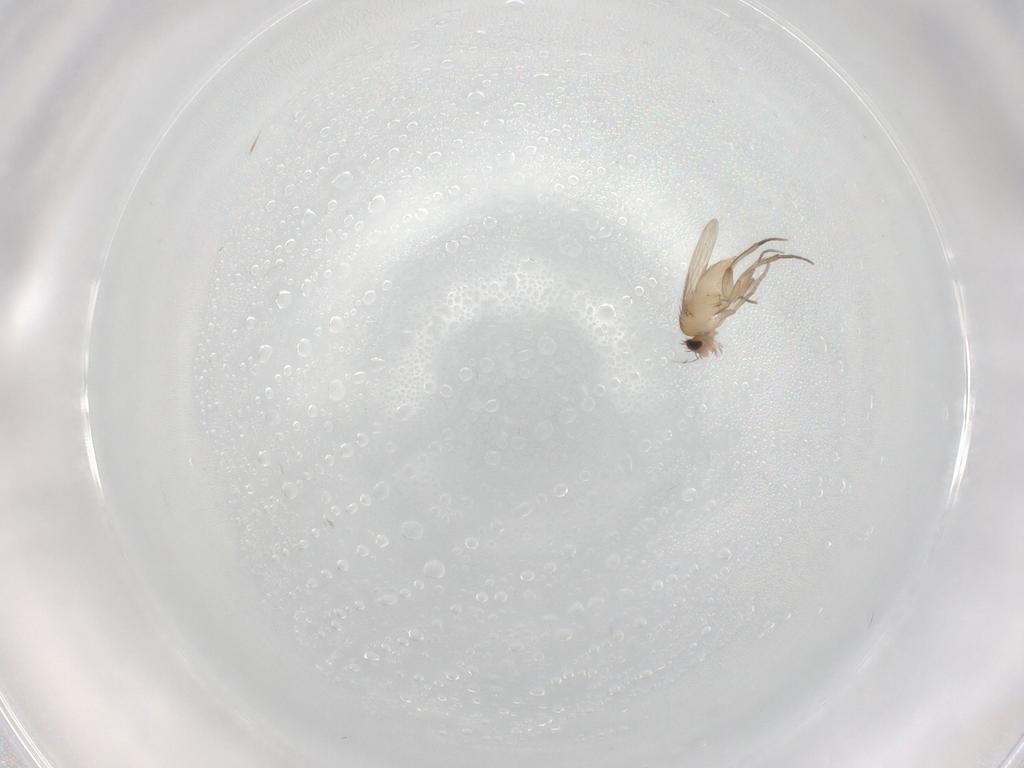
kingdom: Animalia
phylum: Arthropoda
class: Insecta
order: Diptera
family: Phoridae
